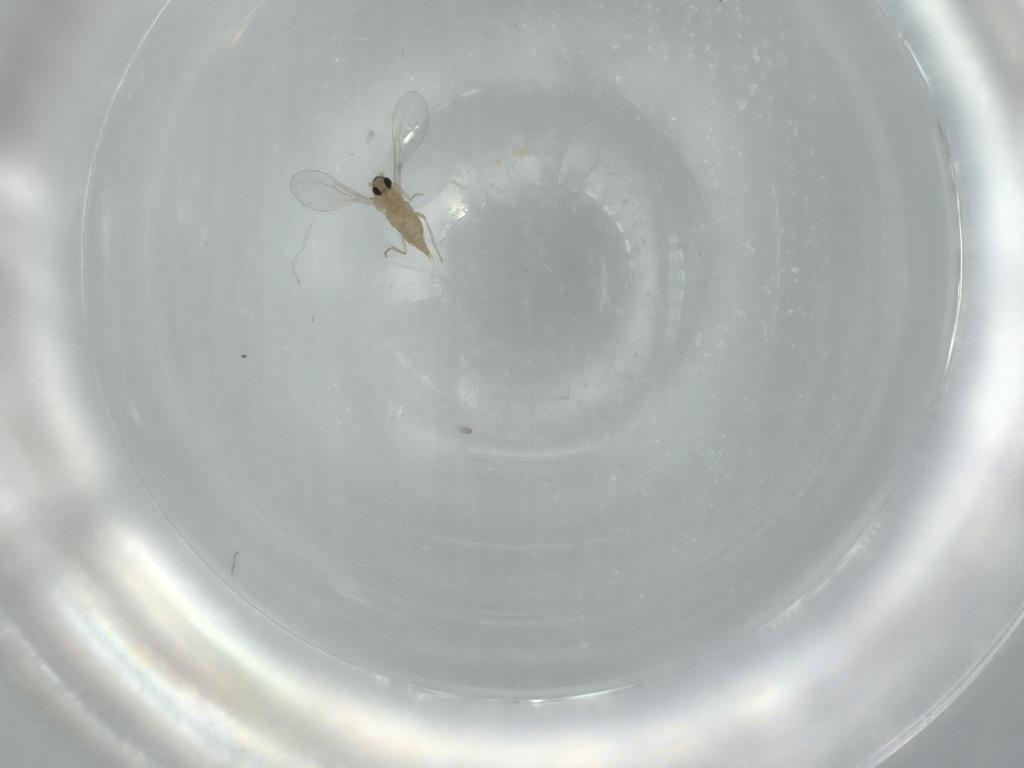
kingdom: Animalia
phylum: Arthropoda
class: Insecta
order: Diptera
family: Cecidomyiidae
